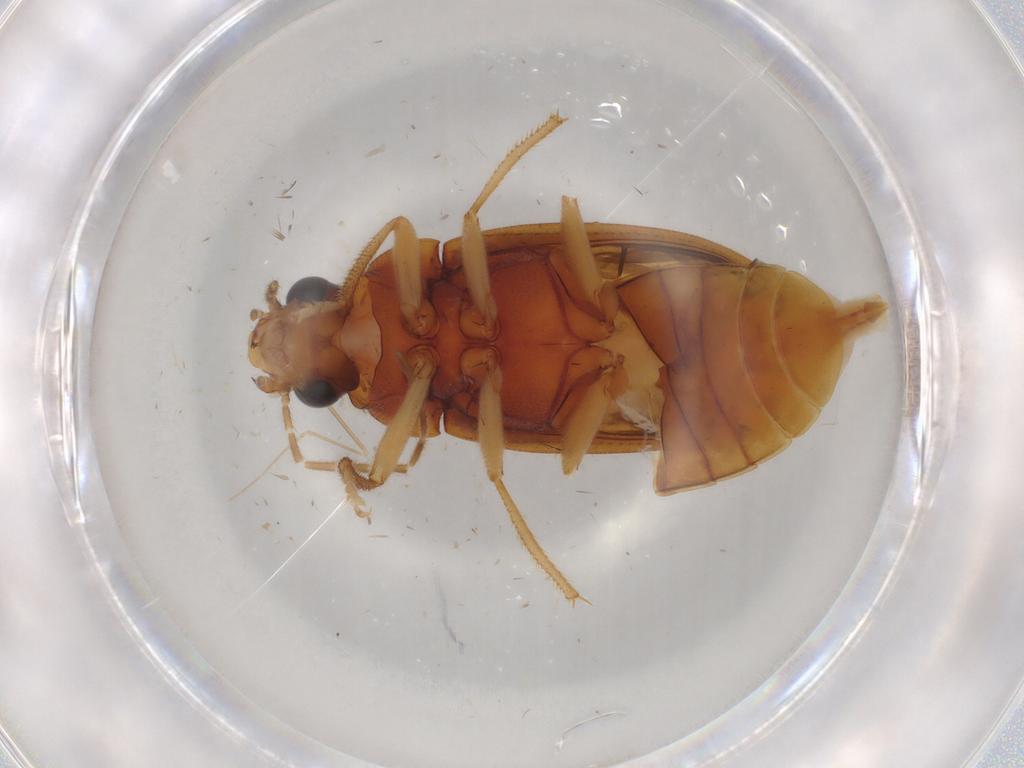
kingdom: Animalia
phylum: Arthropoda
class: Insecta
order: Coleoptera
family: Ptilodactylidae
